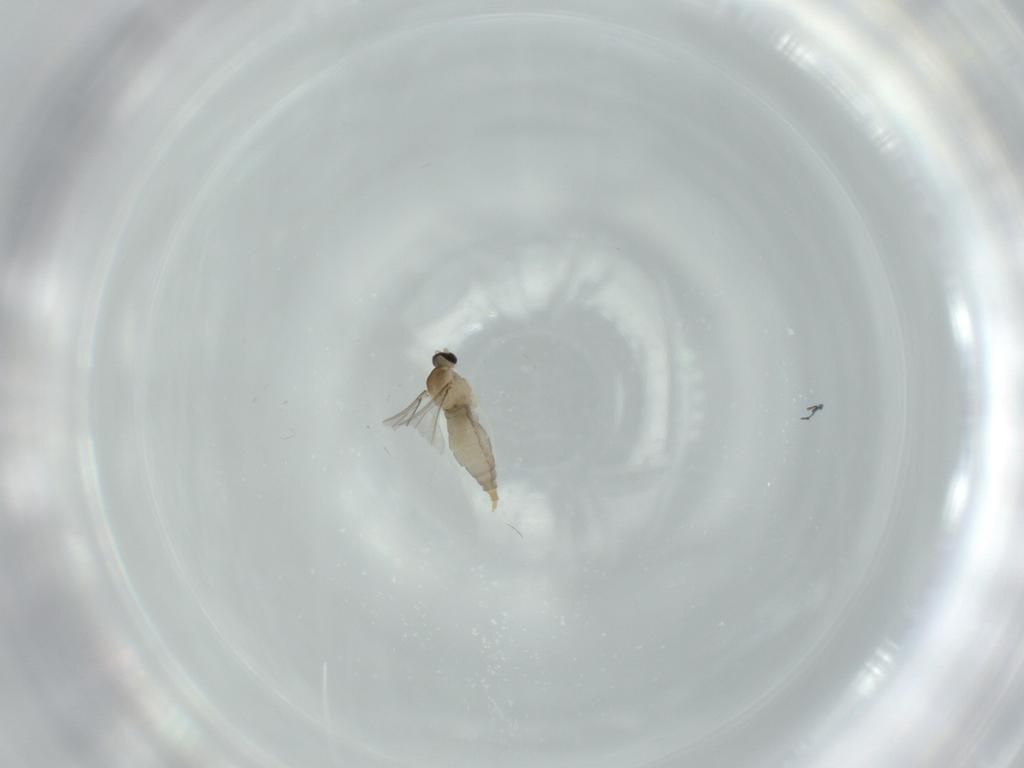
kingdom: Animalia
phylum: Arthropoda
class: Insecta
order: Diptera
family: Cecidomyiidae
